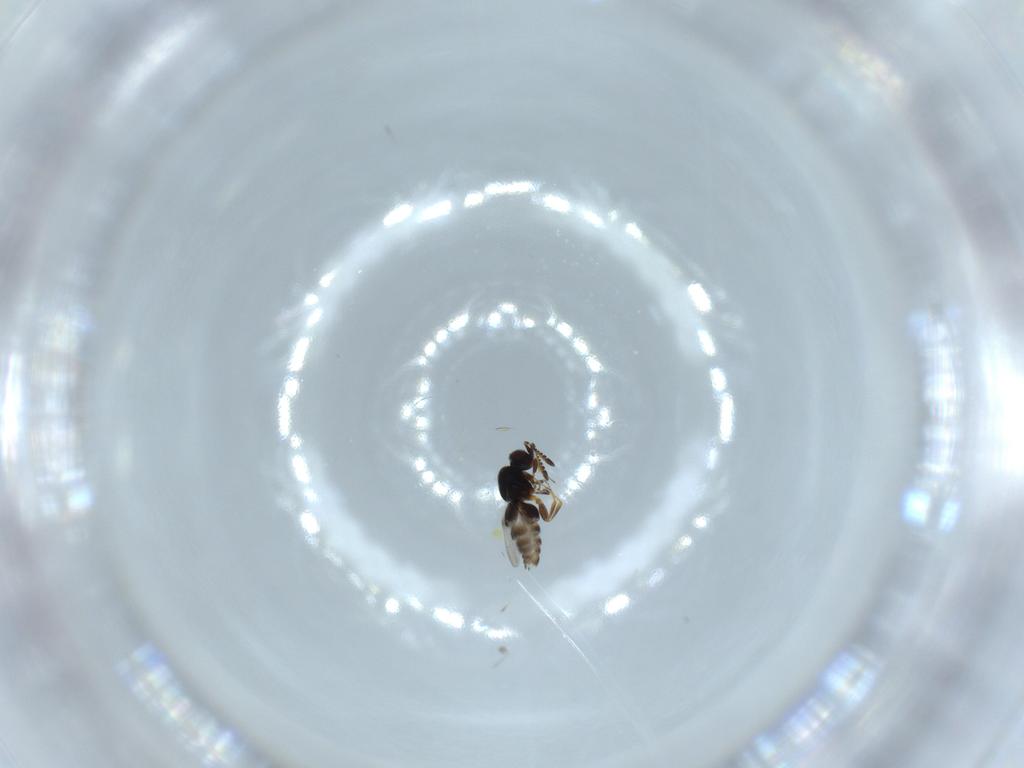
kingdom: Animalia
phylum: Arthropoda
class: Insecta
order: Hymenoptera
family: Ceraphronidae
